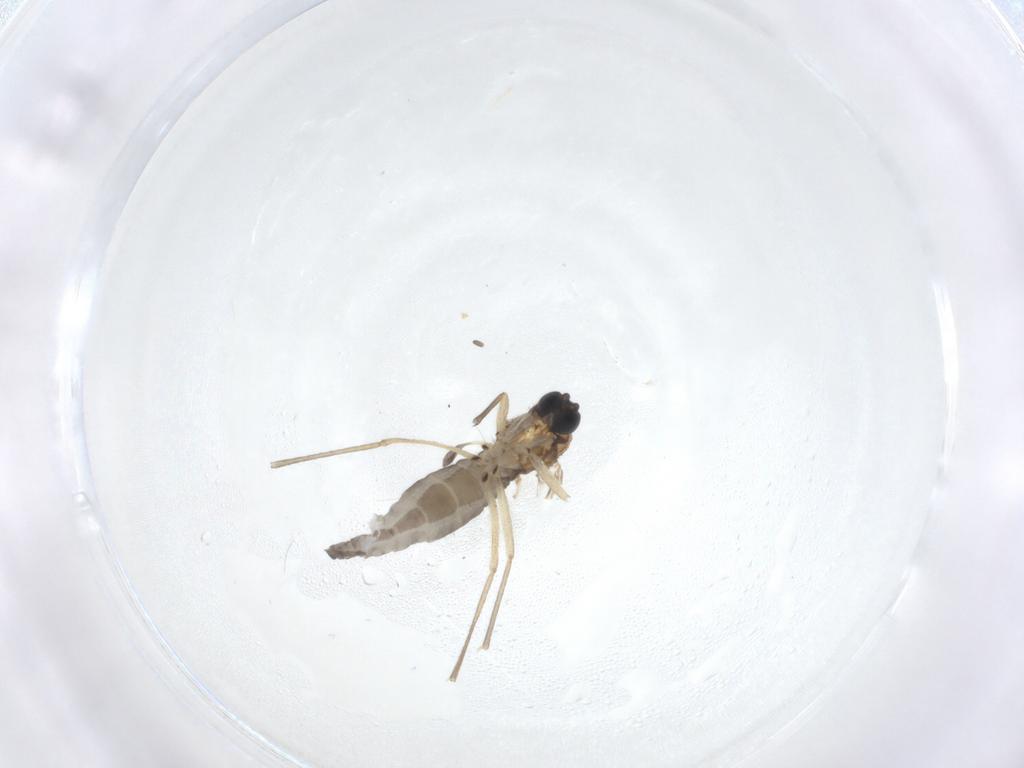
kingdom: Animalia
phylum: Arthropoda
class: Insecta
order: Diptera
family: Sciaridae
